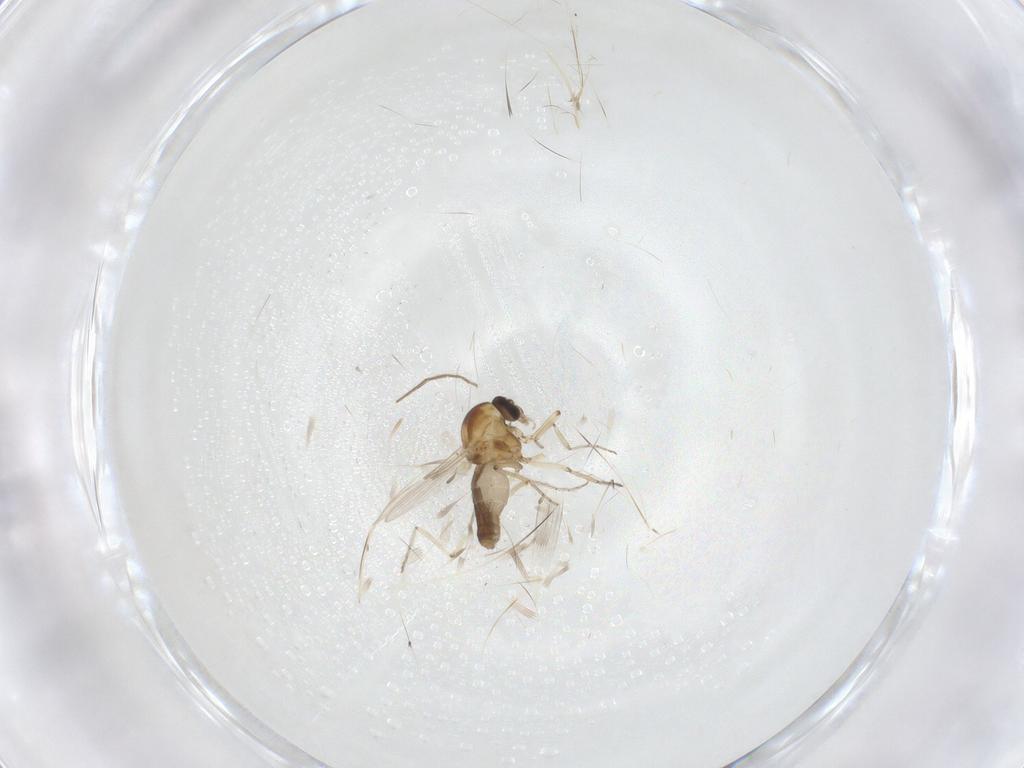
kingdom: Animalia
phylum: Arthropoda
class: Insecta
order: Diptera
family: Ceratopogonidae
